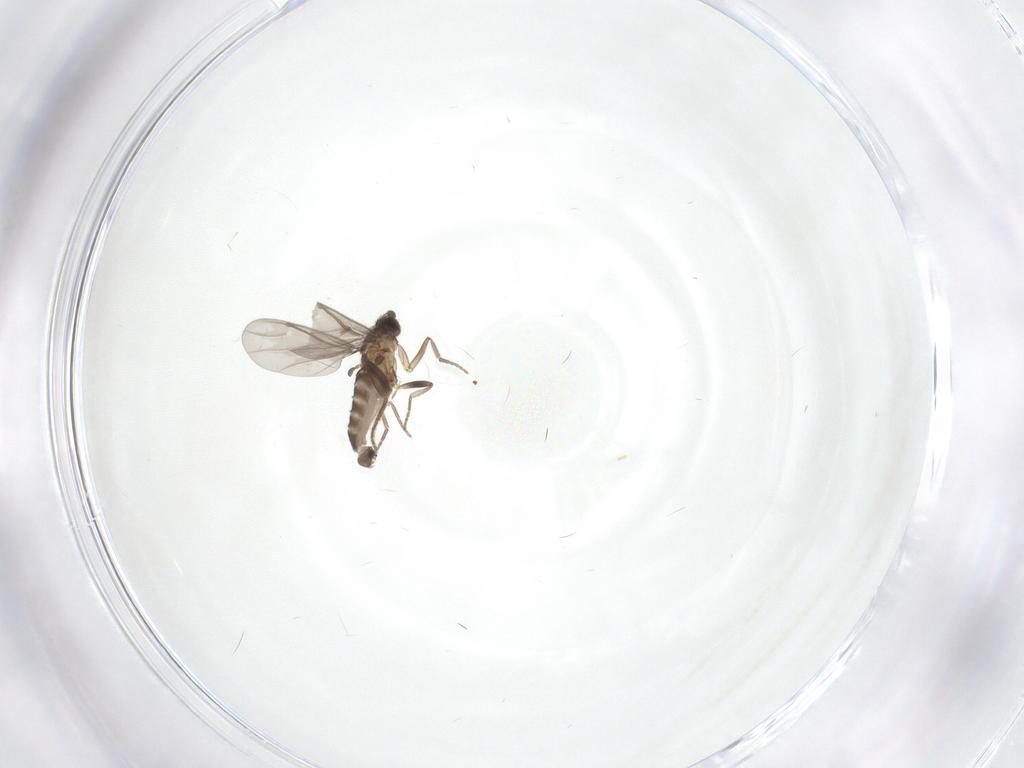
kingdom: Animalia
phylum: Arthropoda
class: Insecta
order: Diptera
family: Phoridae
